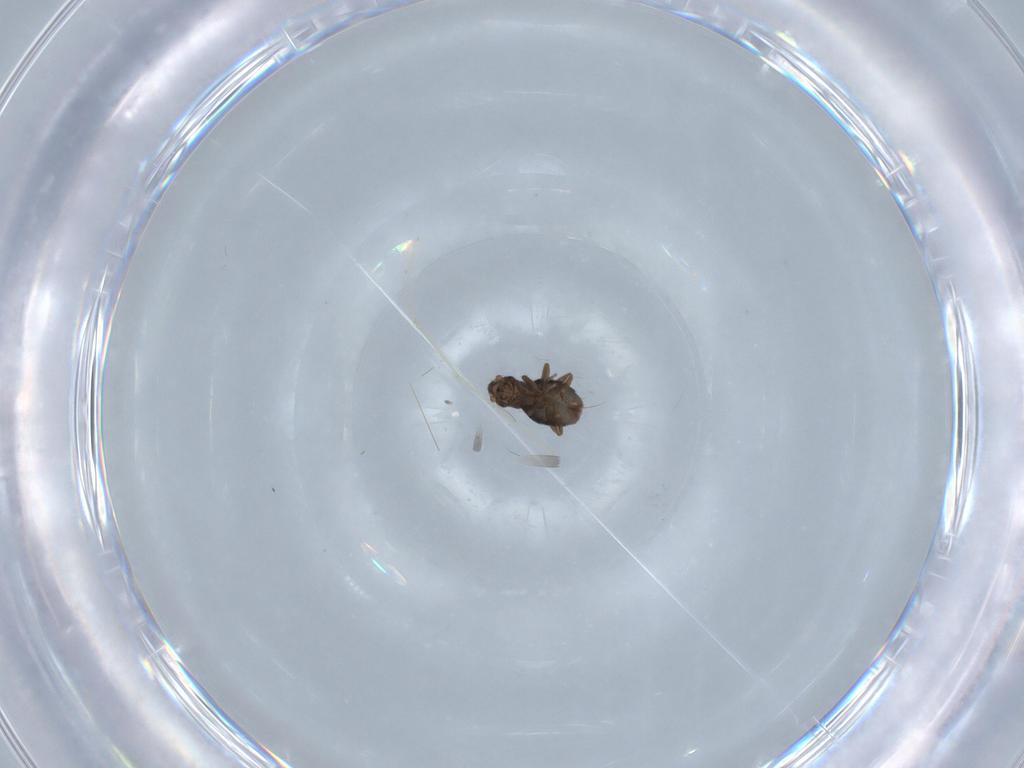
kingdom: Animalia
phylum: Arthropoda
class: Insecta
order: Diptera
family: Chironomidae
